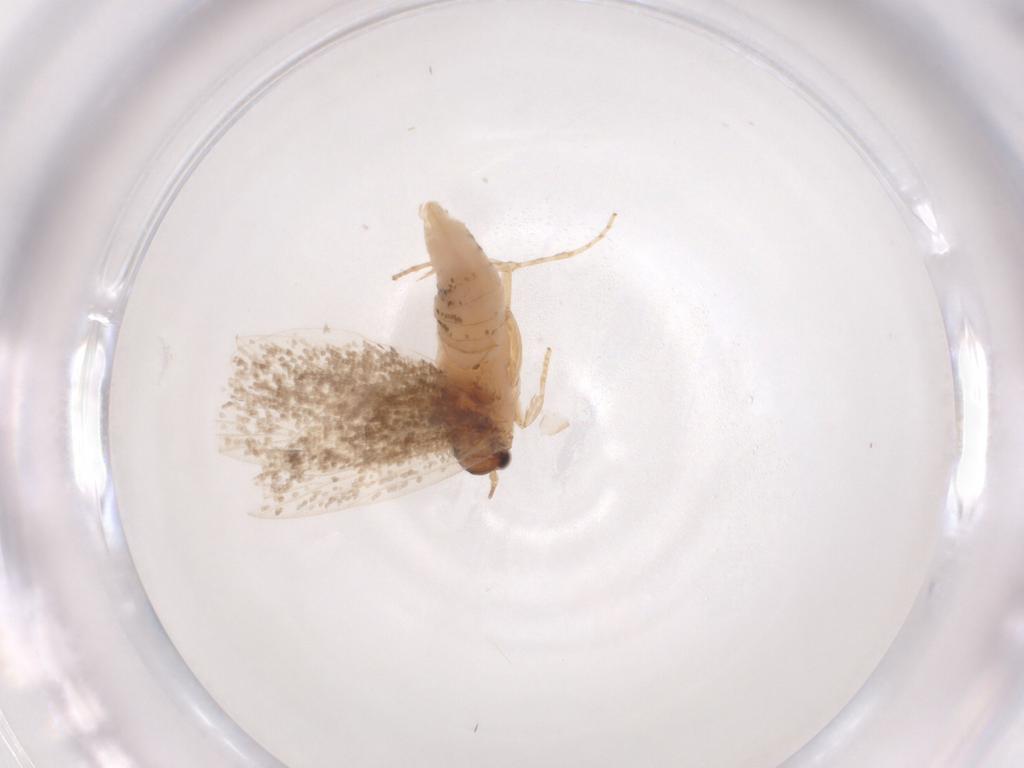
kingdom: Animalia
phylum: Arthropoda
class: Insecta
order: Lepidoptera
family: Tineidae
